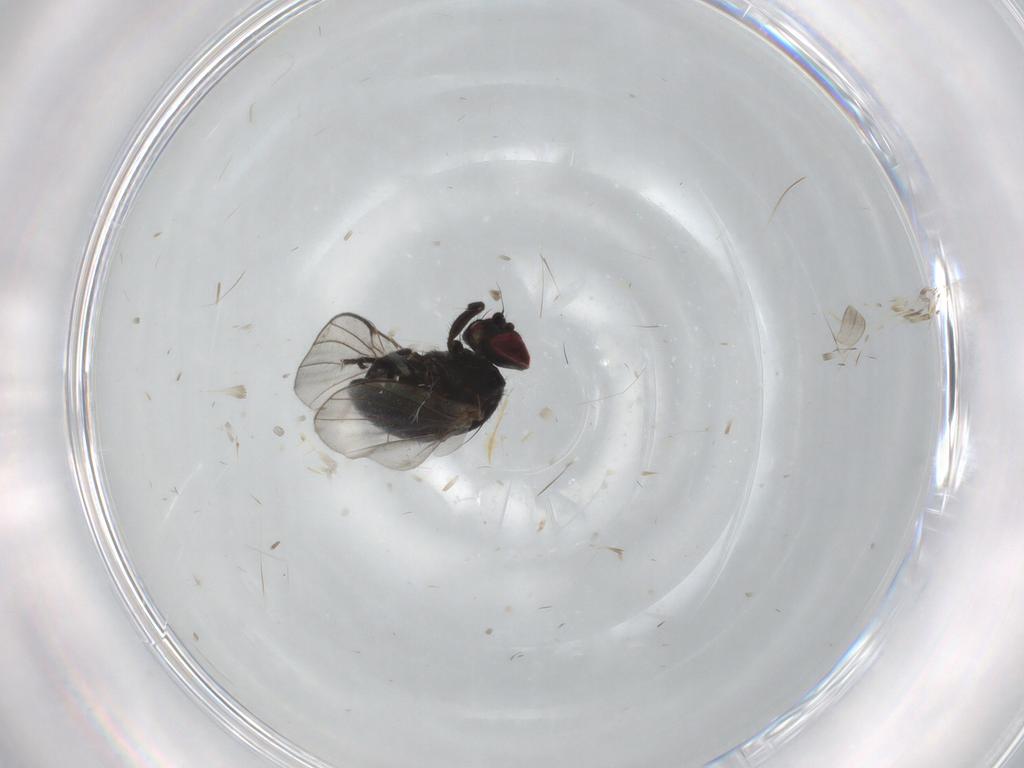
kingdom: Animalia
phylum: Arthropoda
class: Insecta
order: Diptera
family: Agromyzidae
